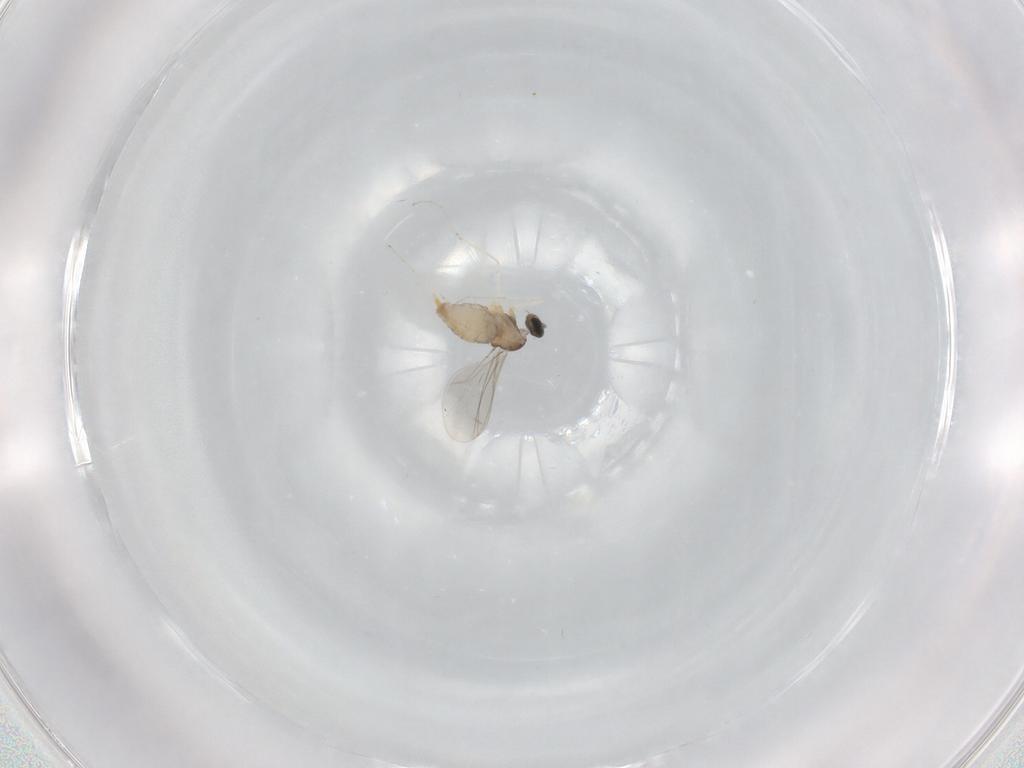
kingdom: Animalia
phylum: Arthropoda
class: Insecta
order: Diptera
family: Cecidomyiidae
